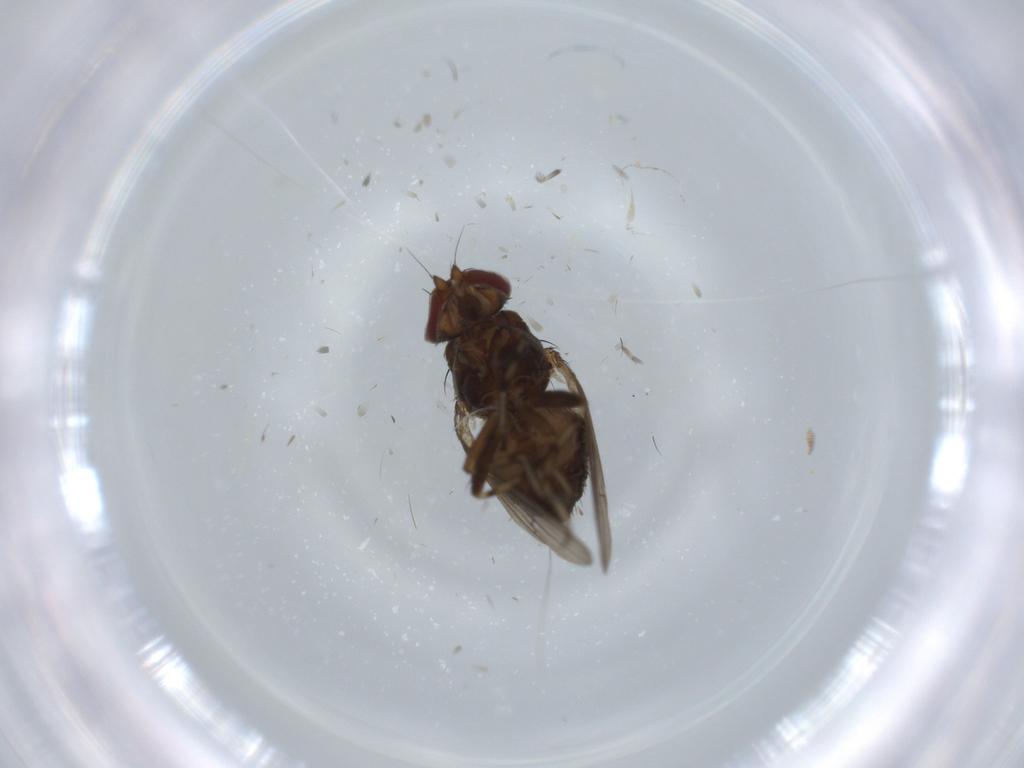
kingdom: Animalia
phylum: Arthropoda
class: Insecta
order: Diptera
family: Heleomyzidae
